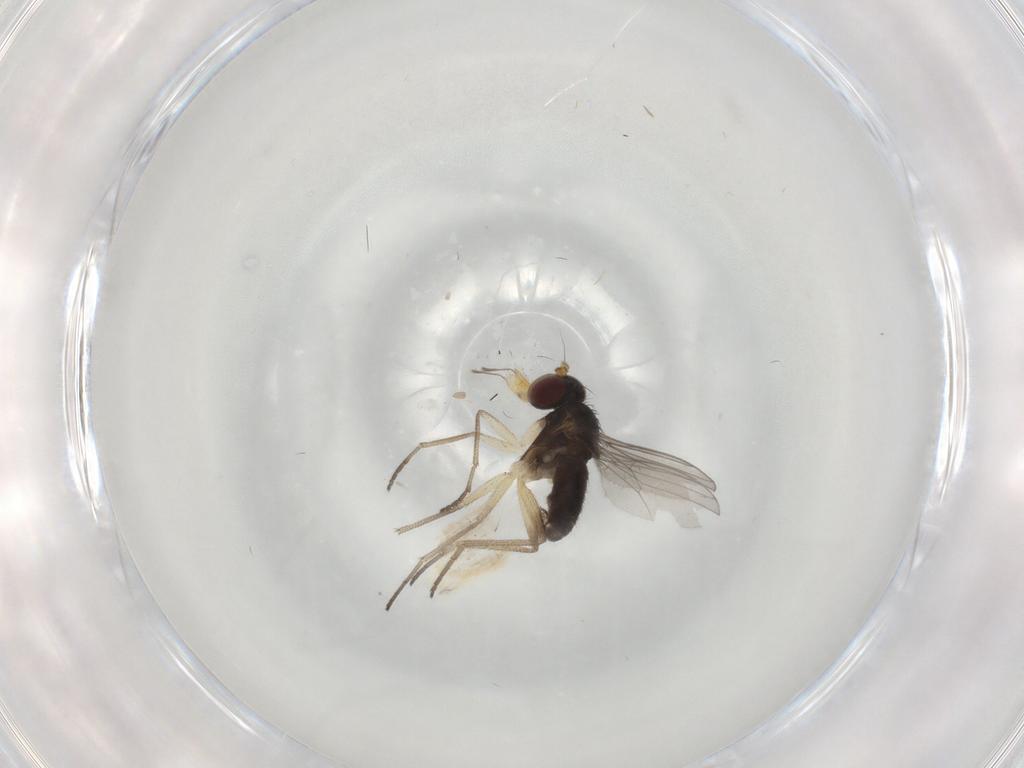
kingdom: Animalia
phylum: Arthropoda
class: Insecta
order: Diptera
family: Dolichopodidae
